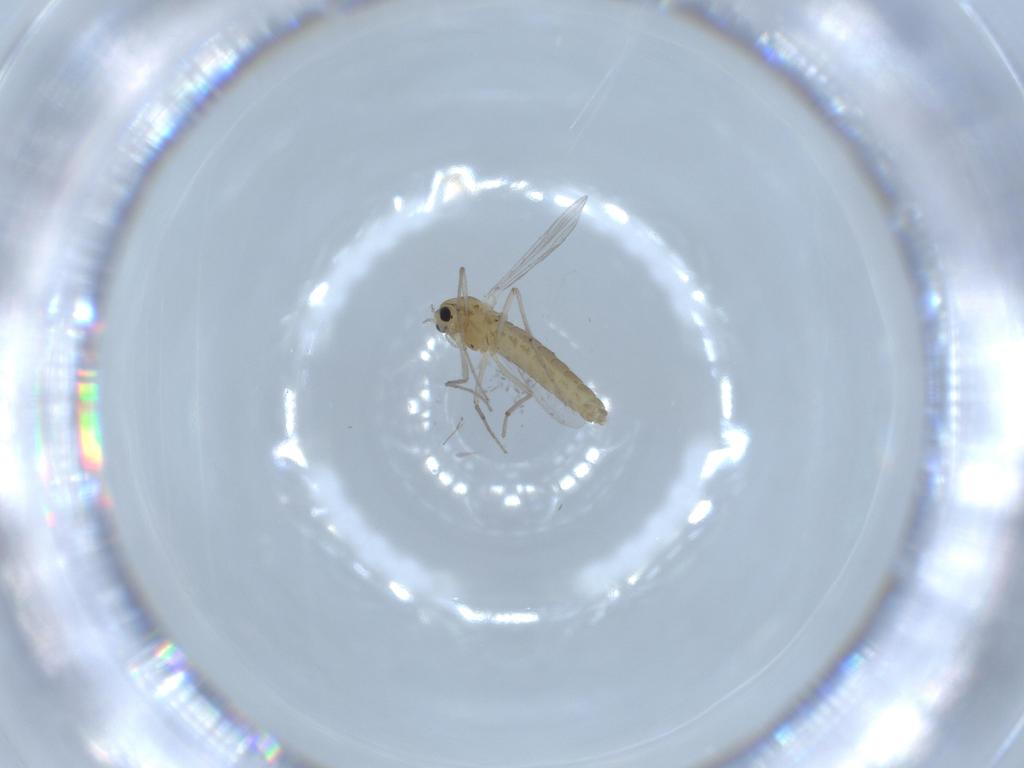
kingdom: Animalia
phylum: Arthropoda
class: Insecta
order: Diptera
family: Chironomidae
